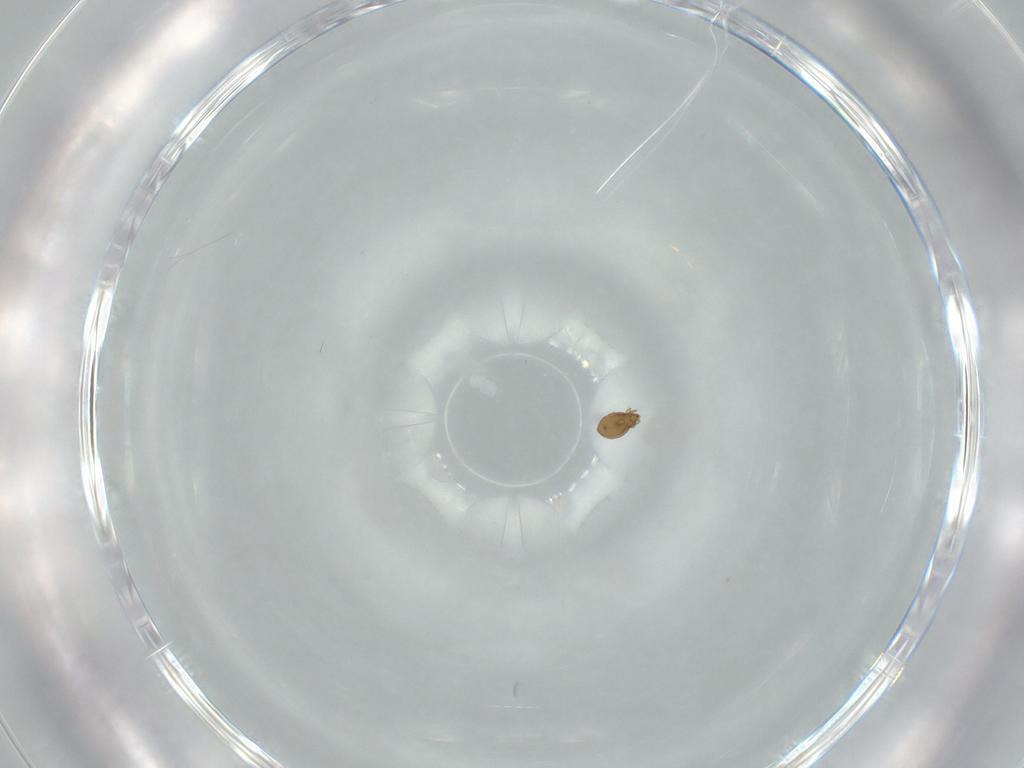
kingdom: Animalia
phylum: Arthropoda
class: Arachnida
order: Sarcoptiformes
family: Oribatulidae
